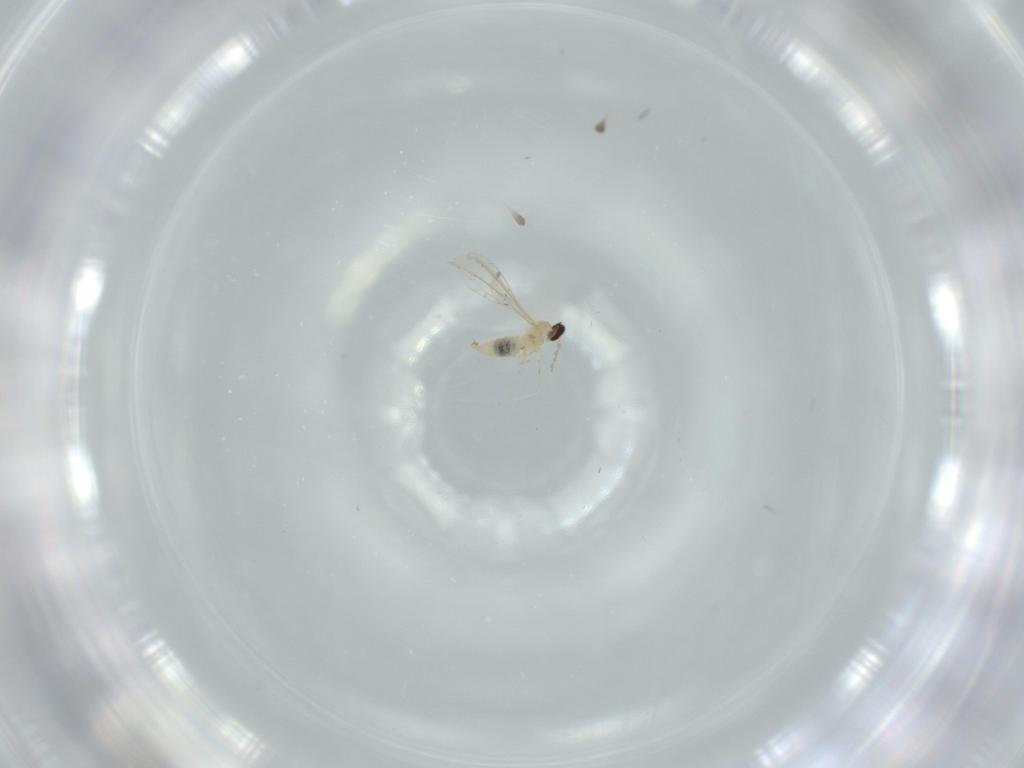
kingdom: Animalia
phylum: Arthropoda
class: Insecta
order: Diptera
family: Cecidomyiidae
